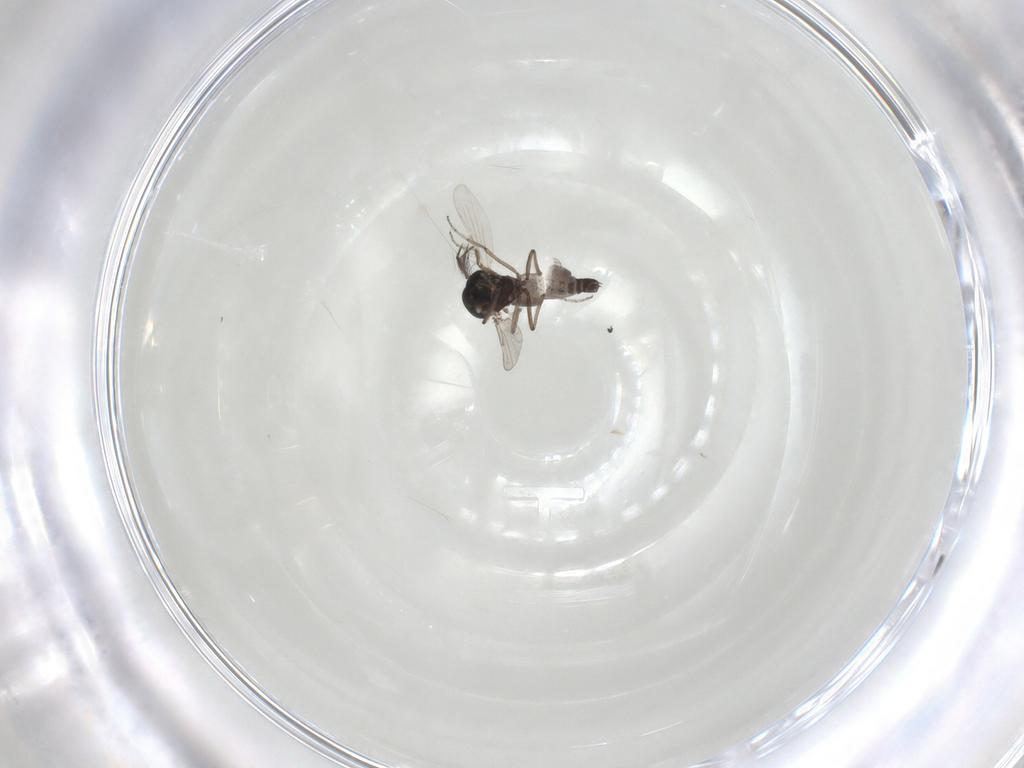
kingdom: Animalia
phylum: Arthropoda
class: Insecta
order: Diptera
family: Ceratopogonidae
